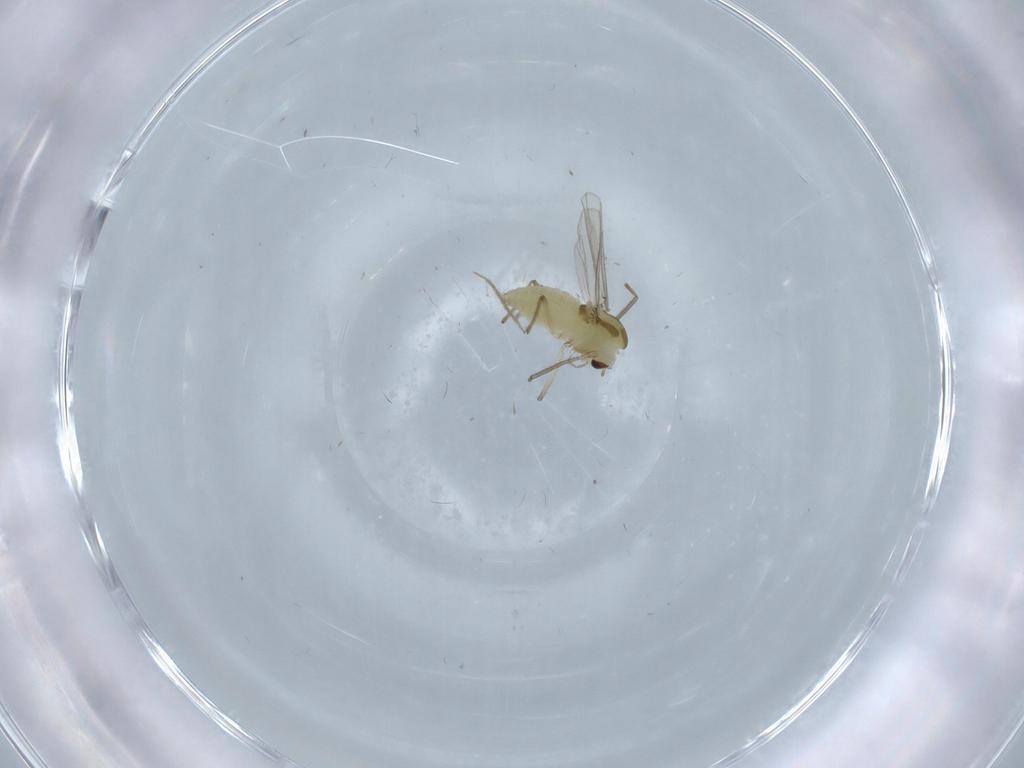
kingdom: Animalia
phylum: Arthropoda
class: Insecta
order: Diptera
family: Chironomidae
